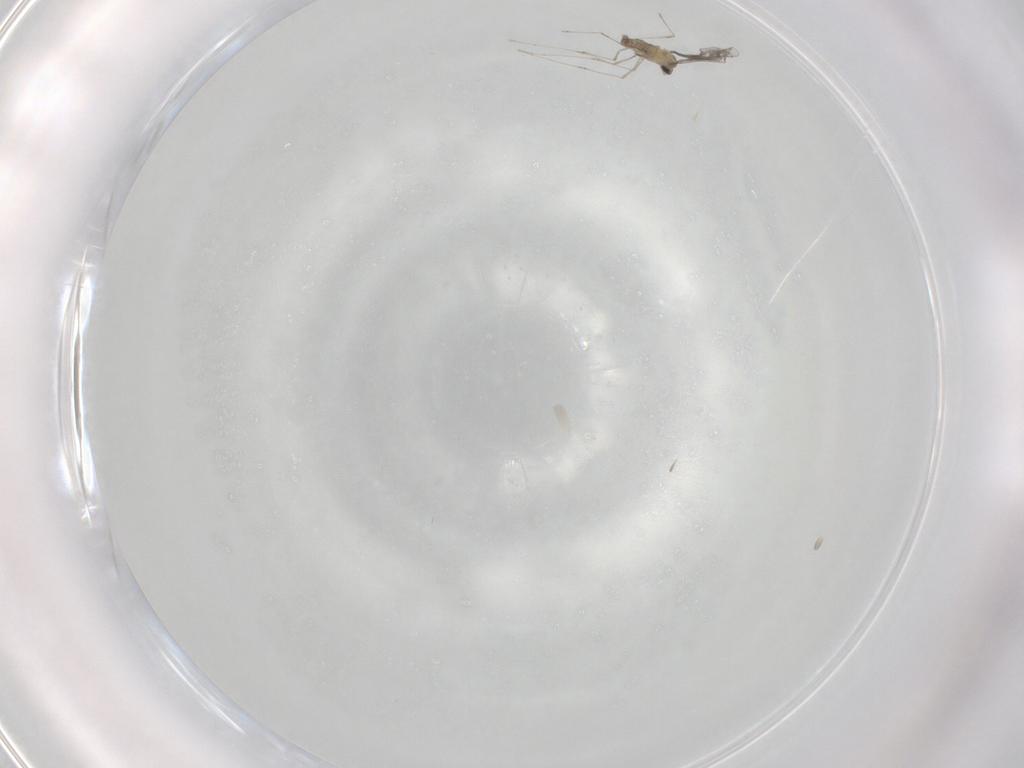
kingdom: Animalia
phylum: Arthropoda
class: Insecta
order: Diptera
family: Cecidomyiidae
